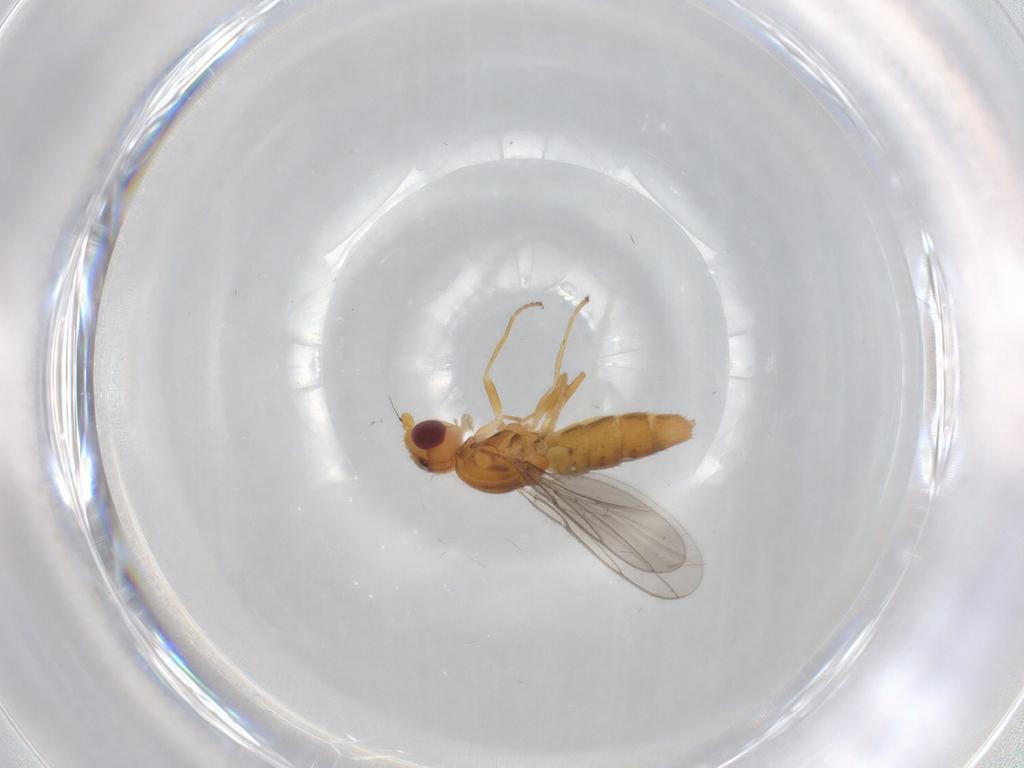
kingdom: Animalia
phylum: Arthropoda
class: Insecta
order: Diptera
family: Chloropidae
